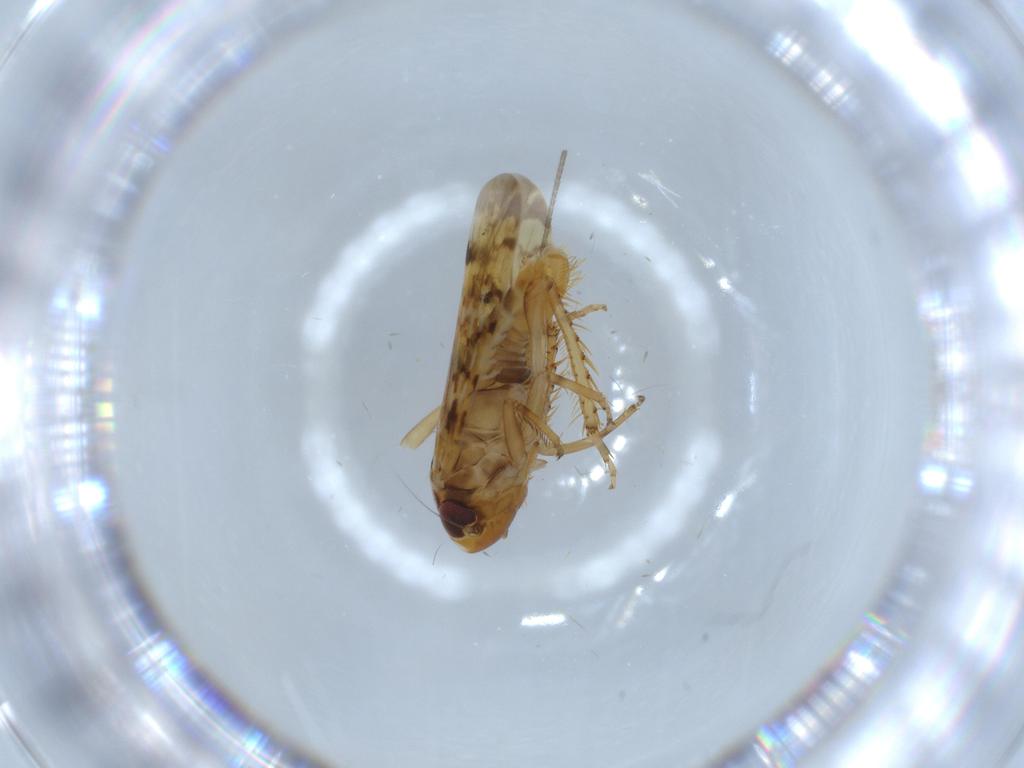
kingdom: Animalia
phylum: Arthropoda
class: Insecta
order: Hemiptera
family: Cicadellidae
